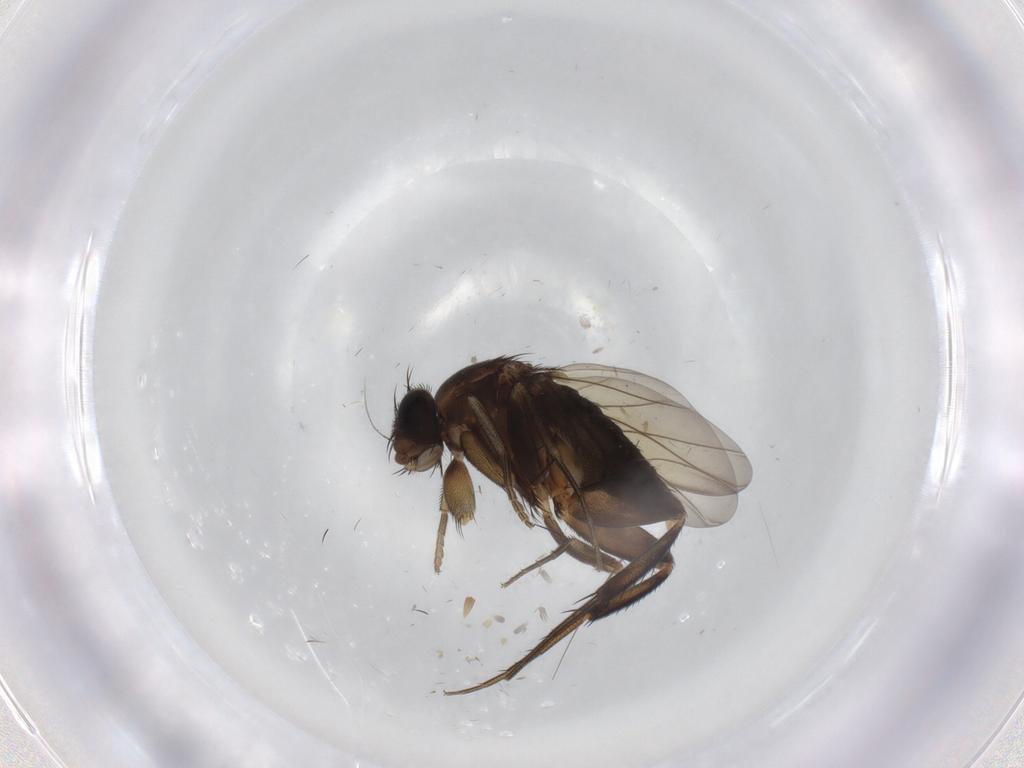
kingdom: Animalia
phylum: Arthropoda
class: Insecta
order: Diptera
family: Phoridae
